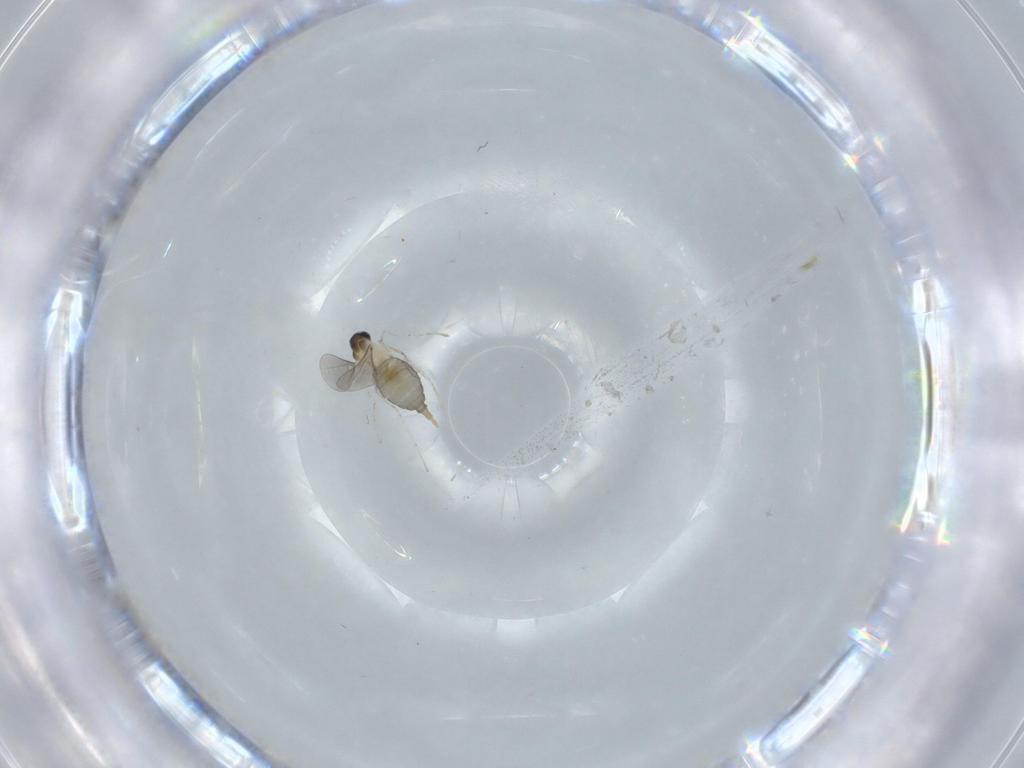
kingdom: Animalia
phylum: Arthropoda
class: Insecta
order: Diptera
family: Cecidomyiidae
